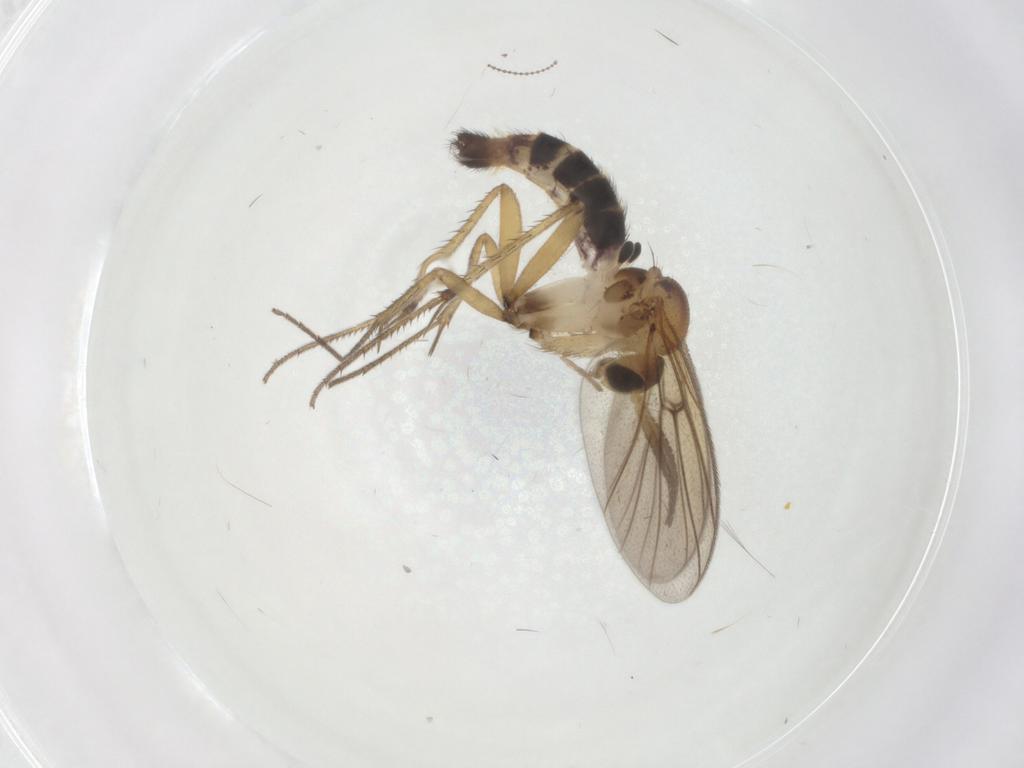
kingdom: Animalia
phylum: Arthropoda
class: Insecta
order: Diptera
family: Mycetophilidae
